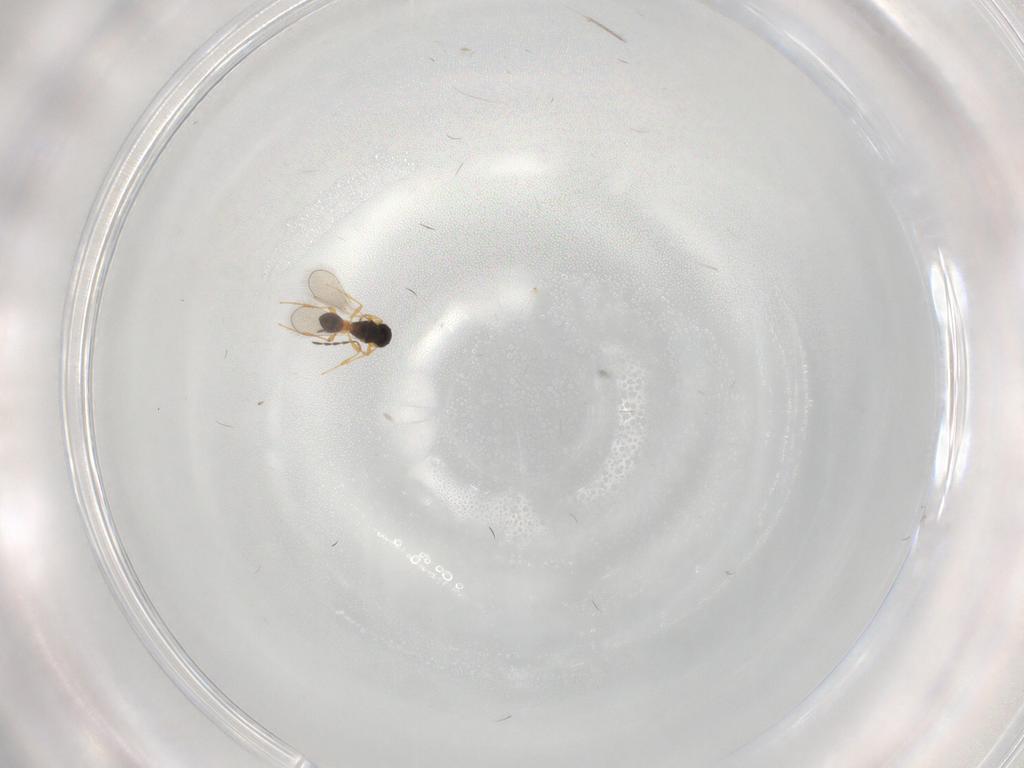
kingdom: Animalia
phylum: Arthropoda
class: Insecta
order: Hymenoptera
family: Platygastridae
